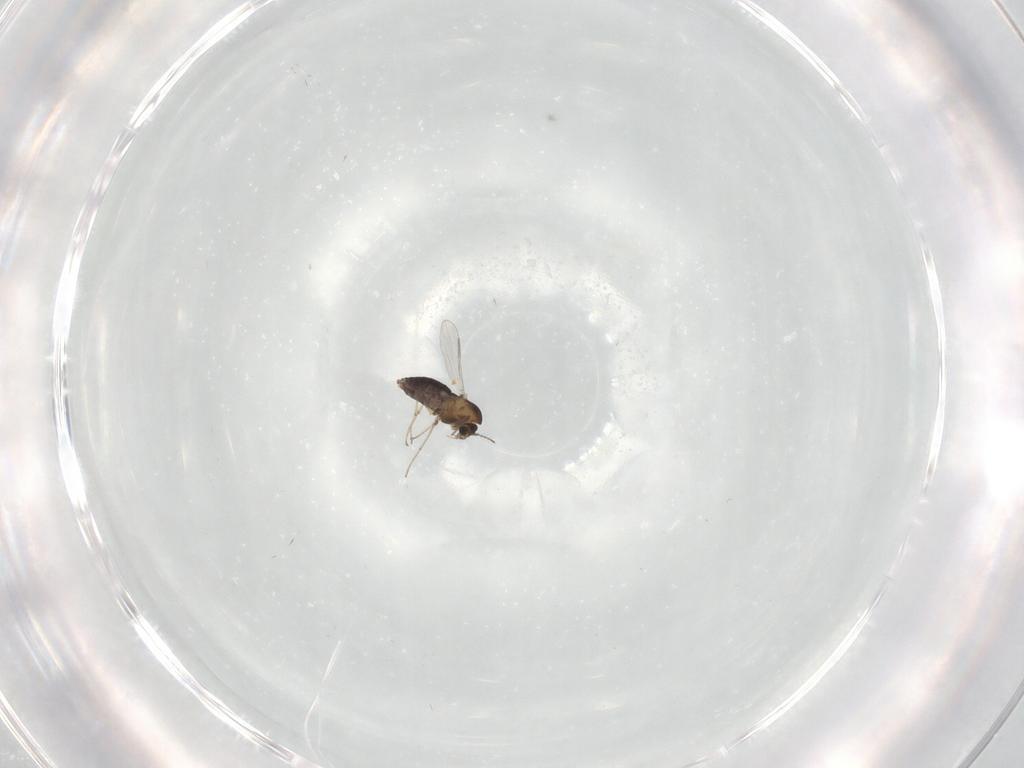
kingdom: Animalia
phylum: Arthropoda
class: Insecta
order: Diptera
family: Chironomidae
